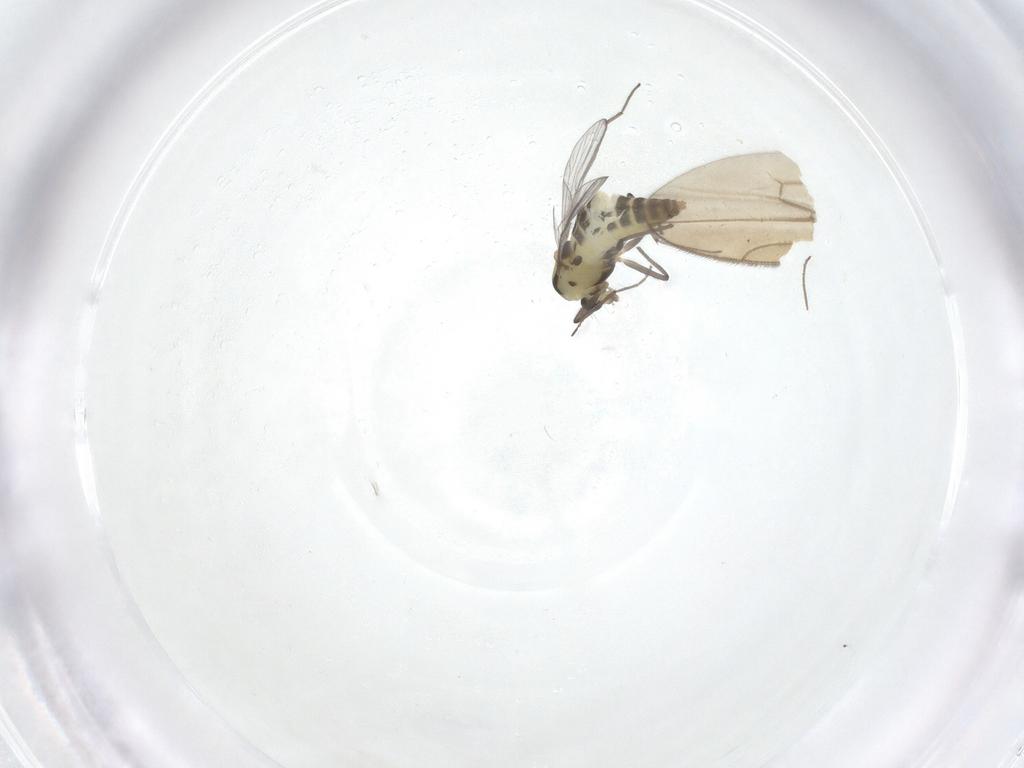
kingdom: Animalia
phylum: Arthropoda
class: Insecta
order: Diptera
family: Chironomidae
